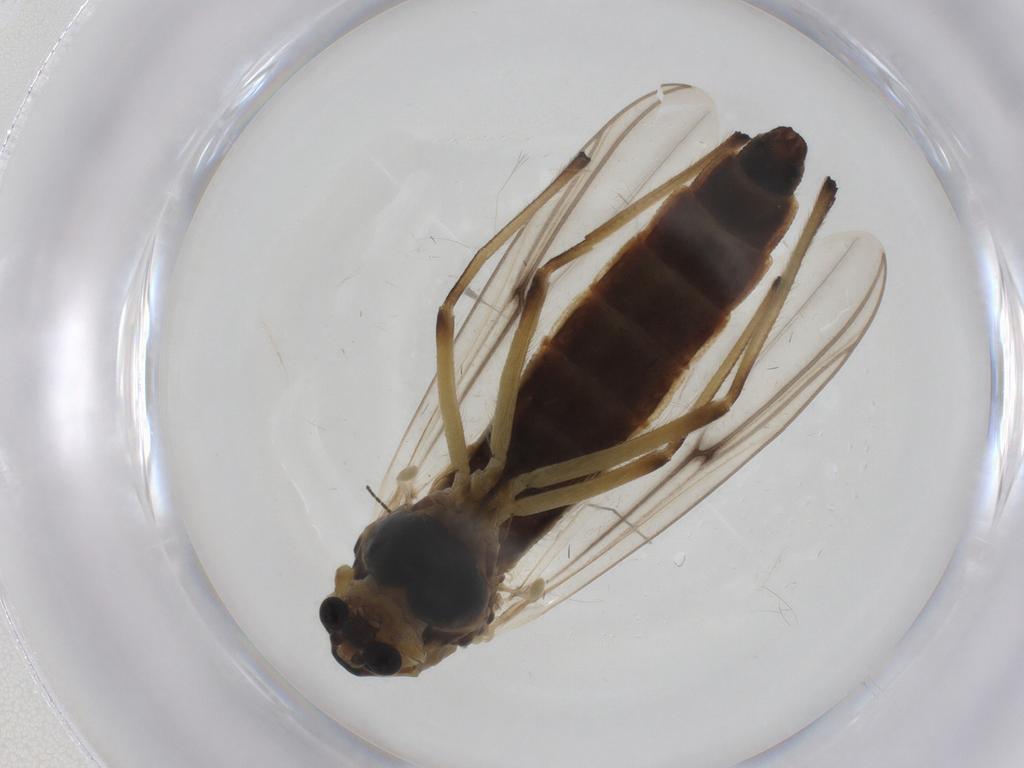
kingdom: Animalia
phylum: Arthropoda
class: Insecta
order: Diptera
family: Chironomidae
